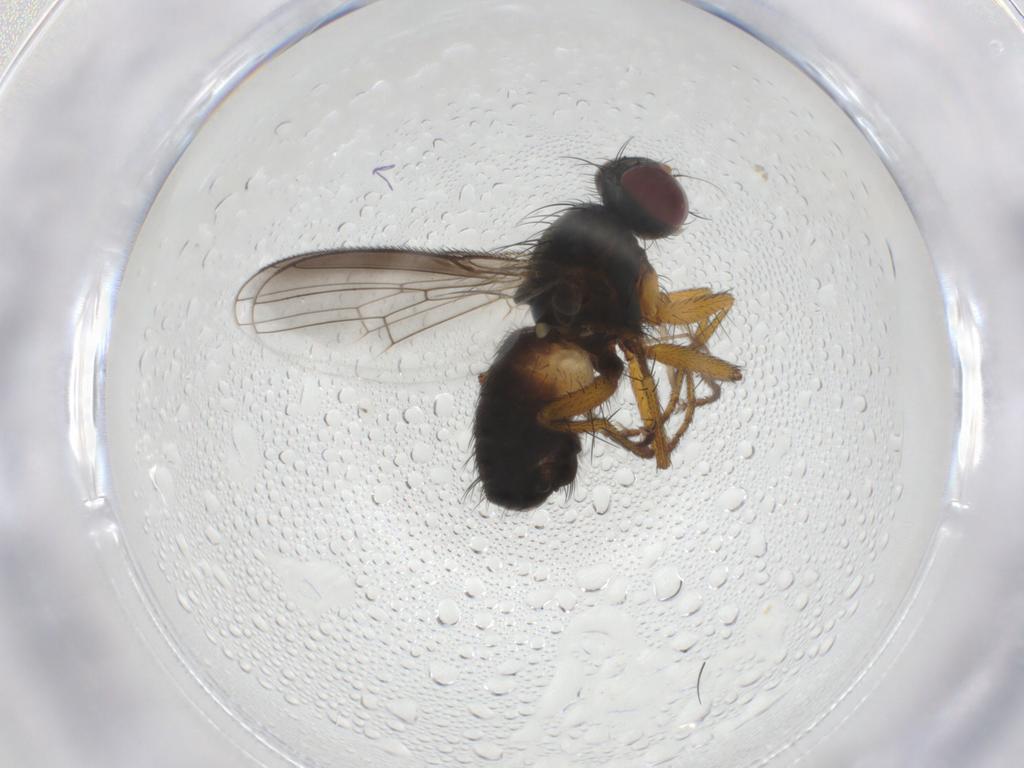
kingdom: Animalia
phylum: Arthropoda
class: Insecta
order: Diptera
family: Muscidae
